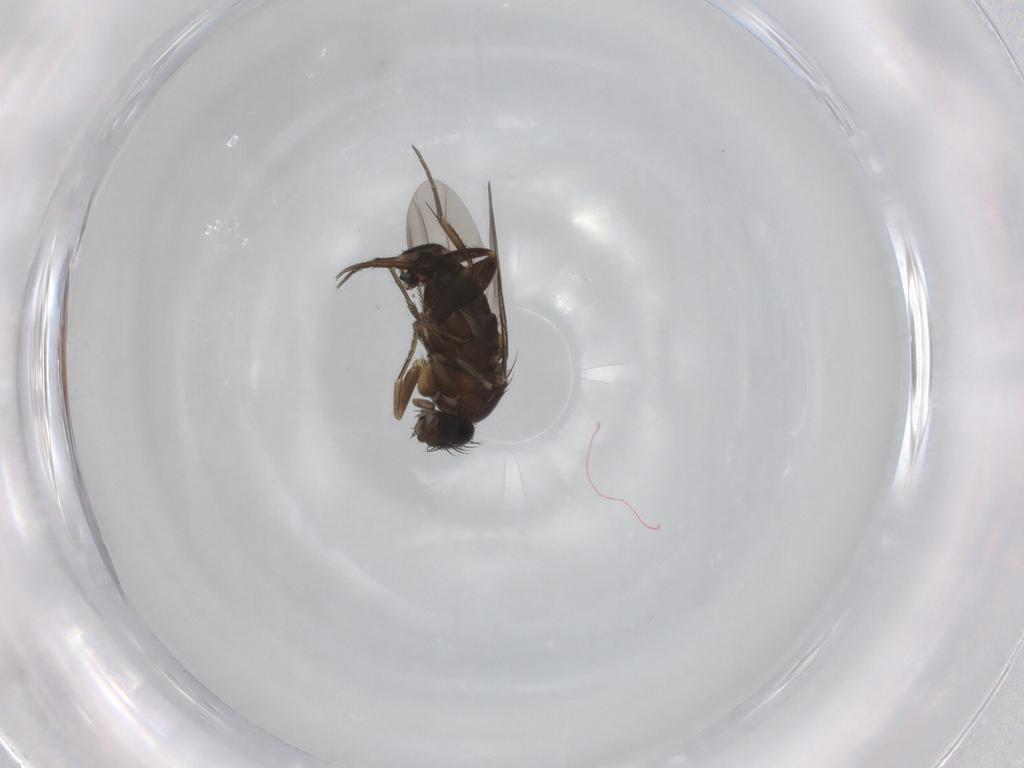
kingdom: Animalia
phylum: Arthropoda
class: Insecta
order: Diptera
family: Phoridae
